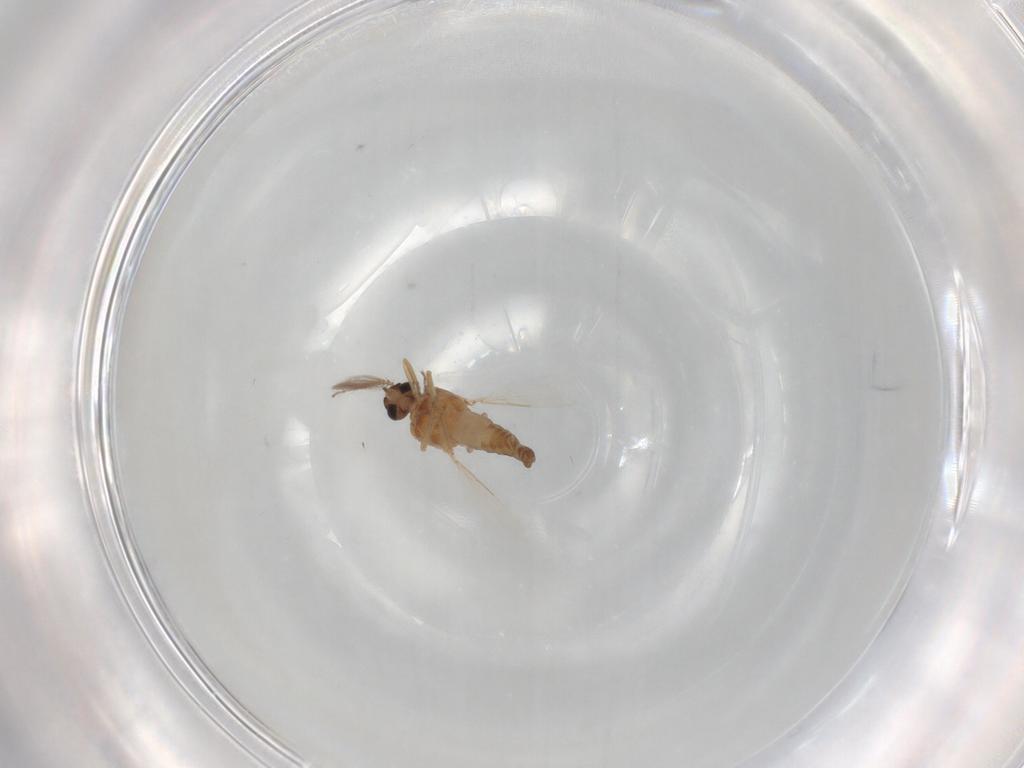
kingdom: Animalia
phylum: Arthropoda
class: Insecta
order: Diptera
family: Ceratopogonidae
